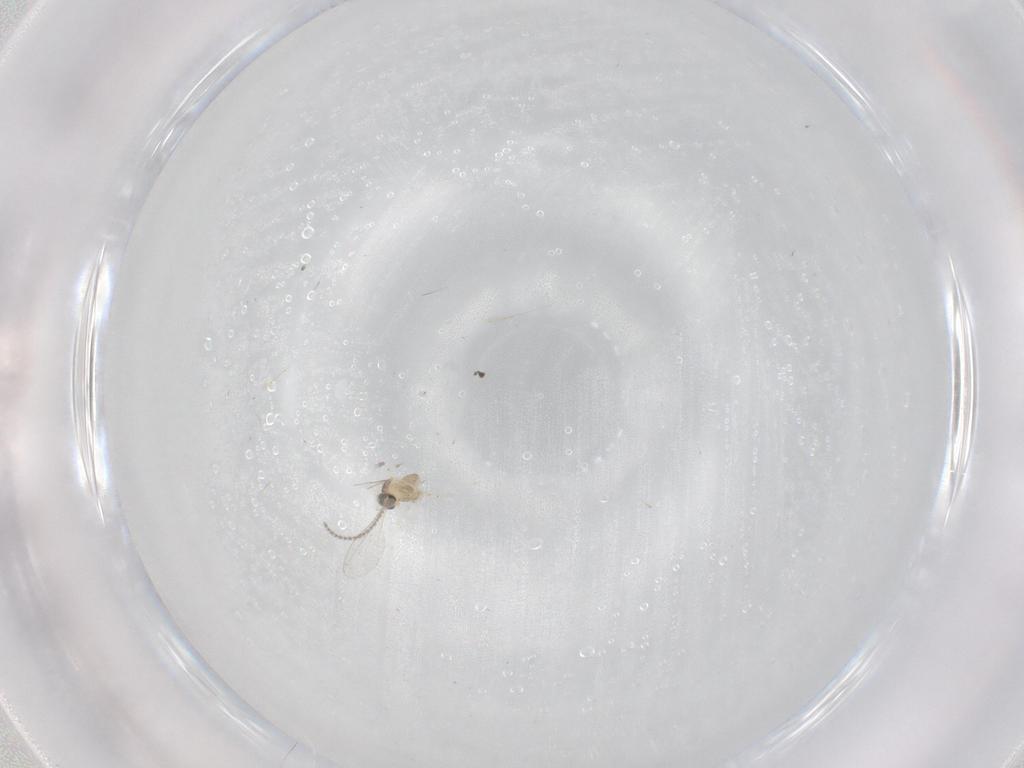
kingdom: Animalia
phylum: Arthropoda
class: Insecta
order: Diptera
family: Cecidomyiidae
